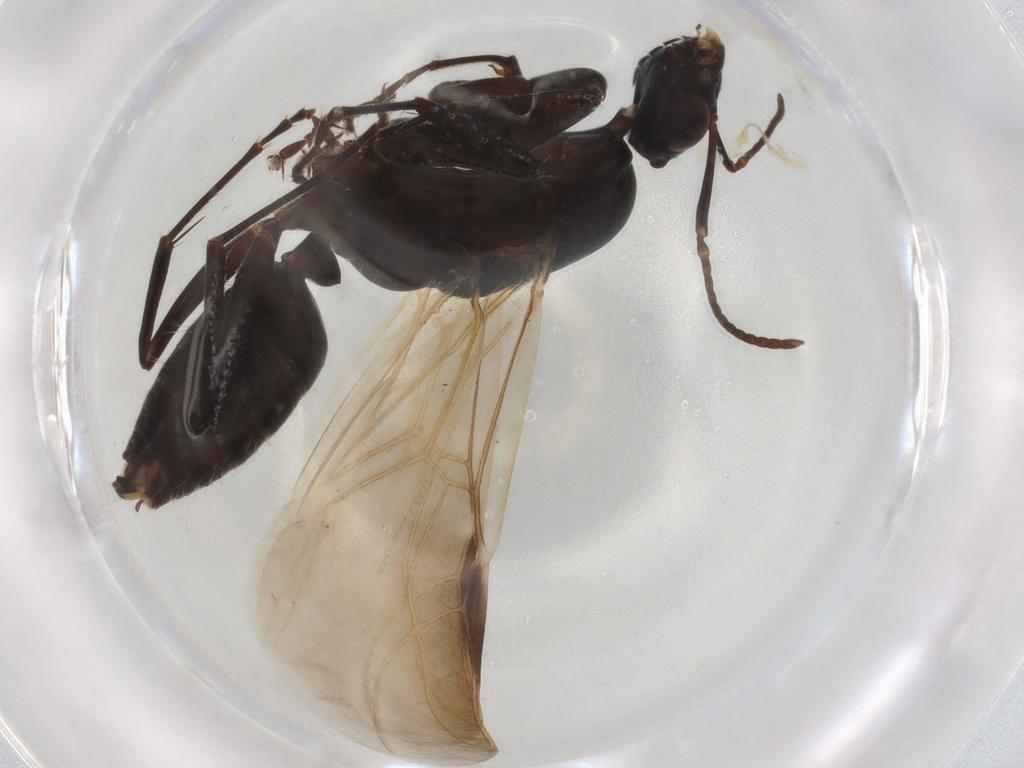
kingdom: Animalia
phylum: Arthropoda
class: Insecta
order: Hymenoptera
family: Formicidae
